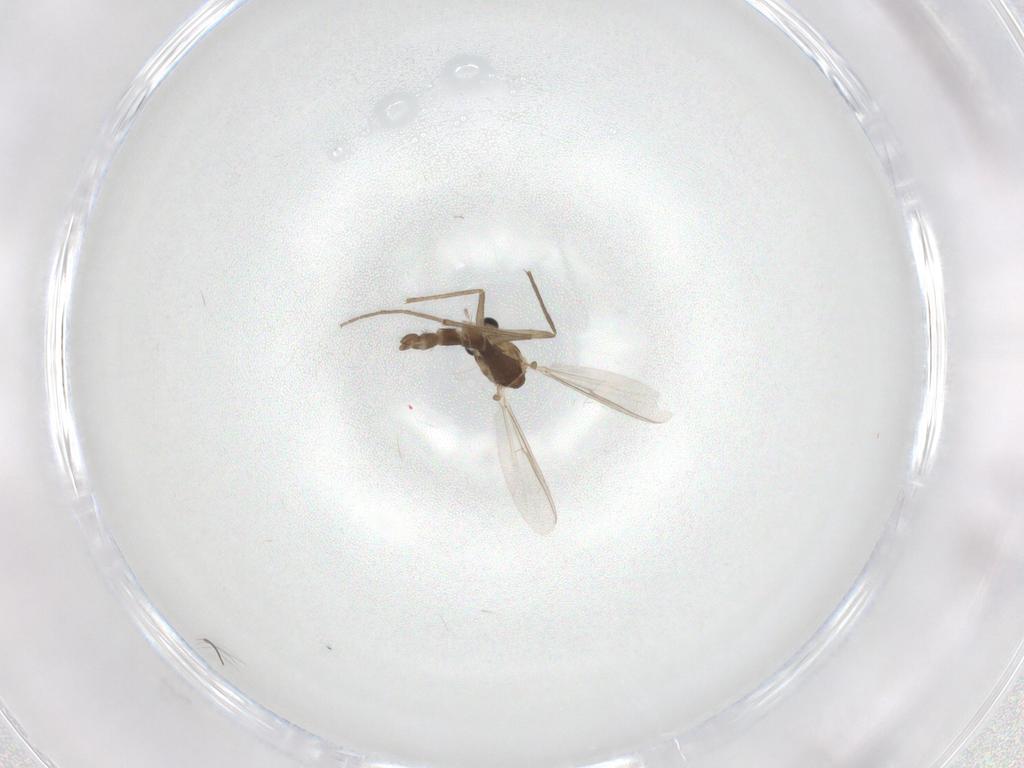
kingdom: Animalia
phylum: Arthropoda
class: Insecta
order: Diptera
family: Chironomidae
